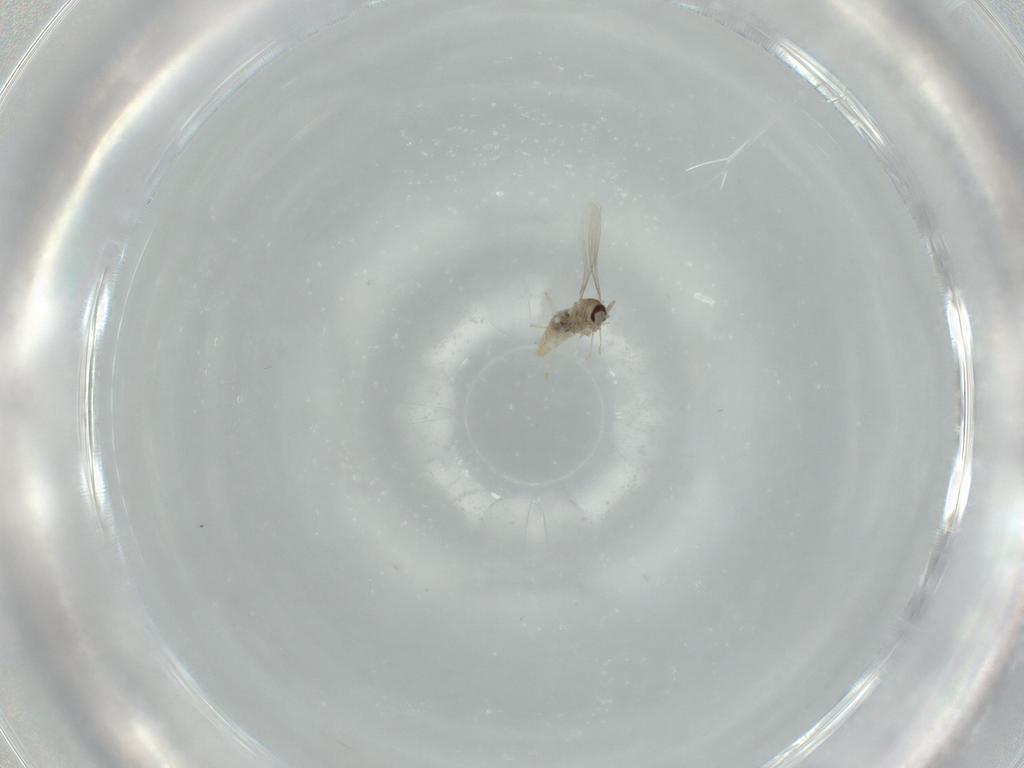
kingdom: Animalia
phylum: Arthropoda
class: Insecta
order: Diptera
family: Cecidomyiidae
